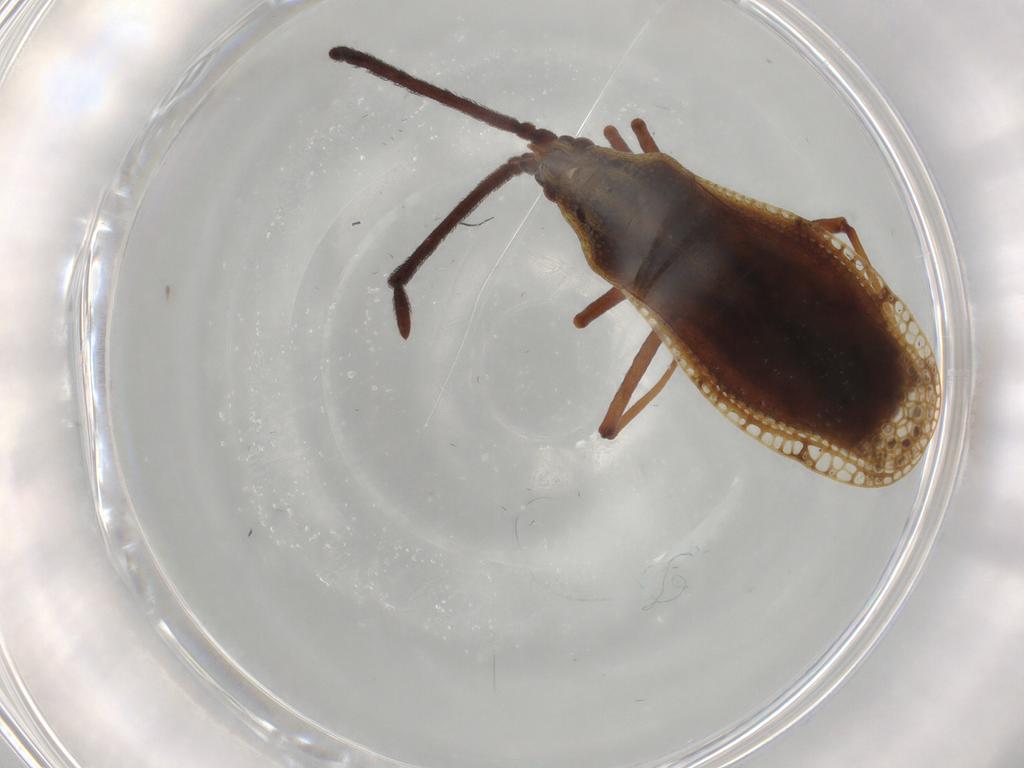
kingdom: Animalia
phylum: Arthropoda
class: Insecta
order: Hemiptera
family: Tingidae
